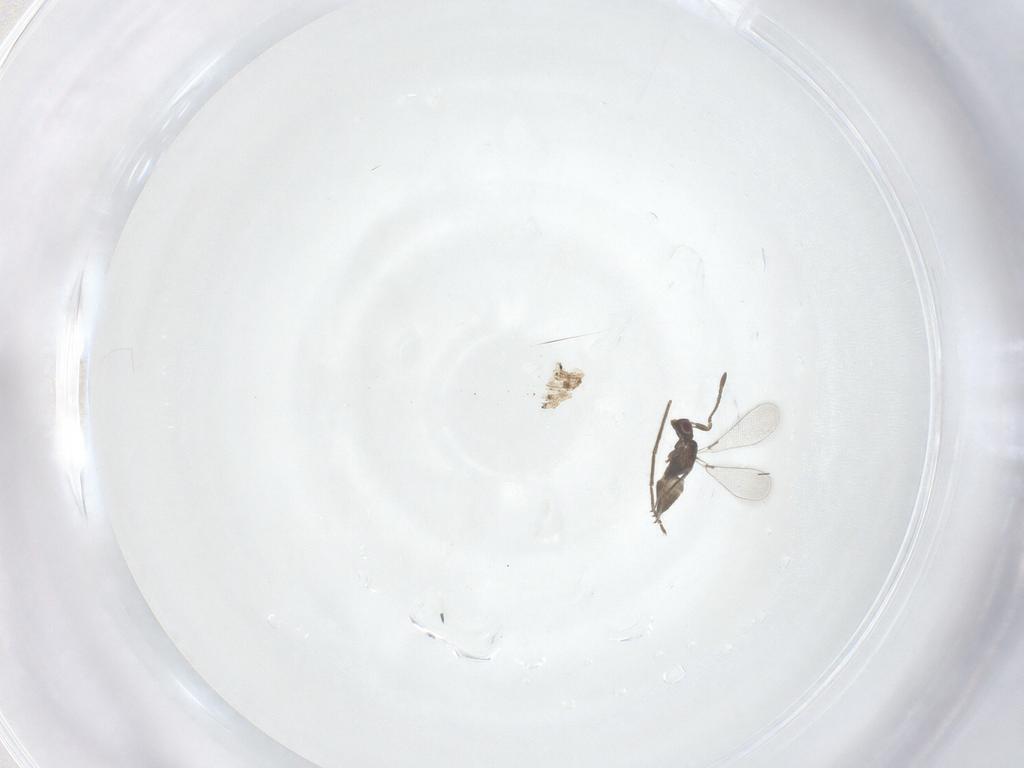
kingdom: Animalia
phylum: Arthropoda
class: Insecta
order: Hymenoptera
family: Mymaridae
